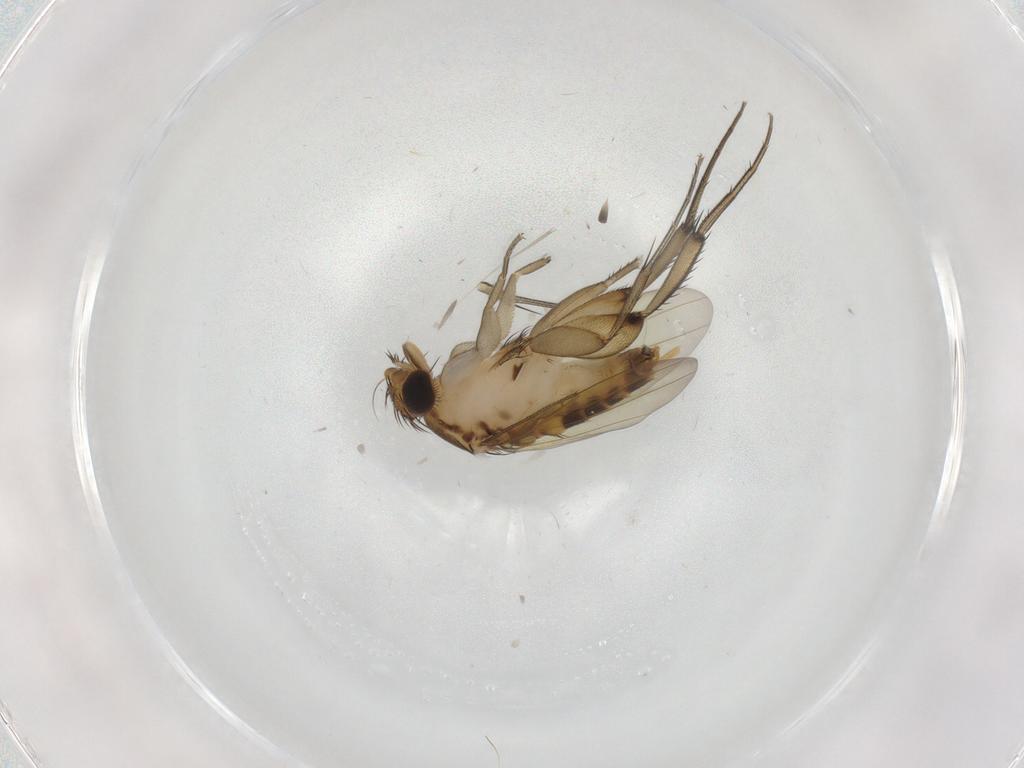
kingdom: Animalia
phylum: Arthropoda
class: Insecta
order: Diptera
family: Phoridae
